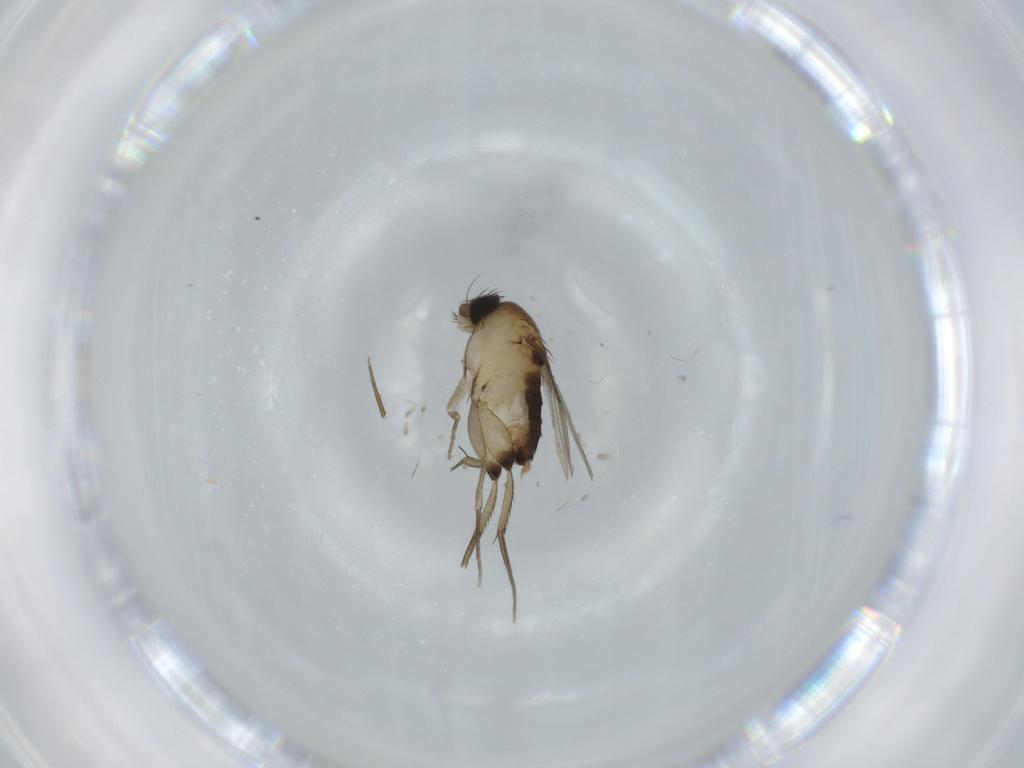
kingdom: Animalia
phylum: Arthropoda
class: Insecta
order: Diptera
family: Phoridae
